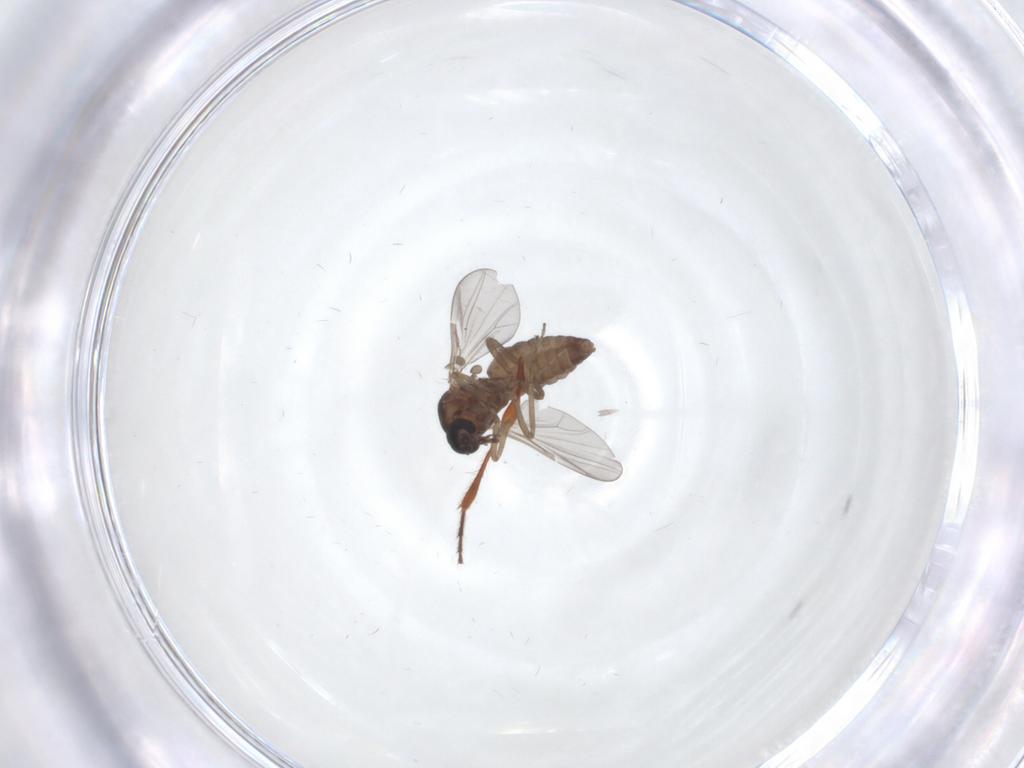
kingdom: Animalia
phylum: Arthropoda
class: Insecta
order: Diptera
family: Ceratopogonidae
